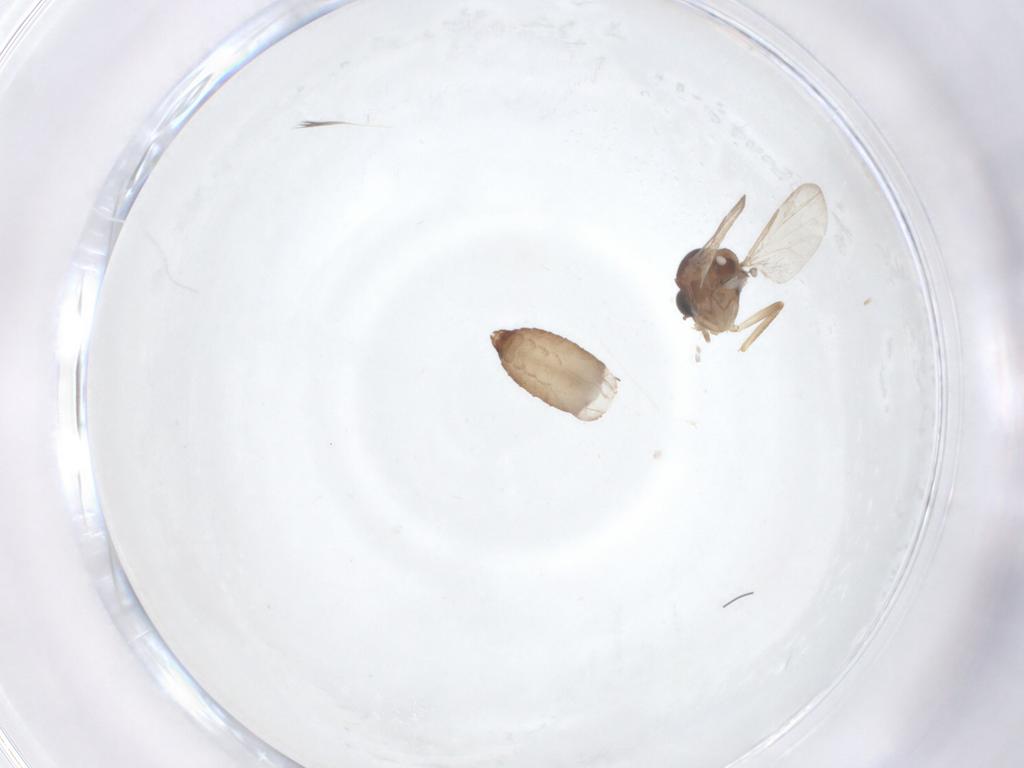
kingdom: Animalia
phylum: Arthropoda
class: Insecta
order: Diptera
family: Ceratopogonidae
